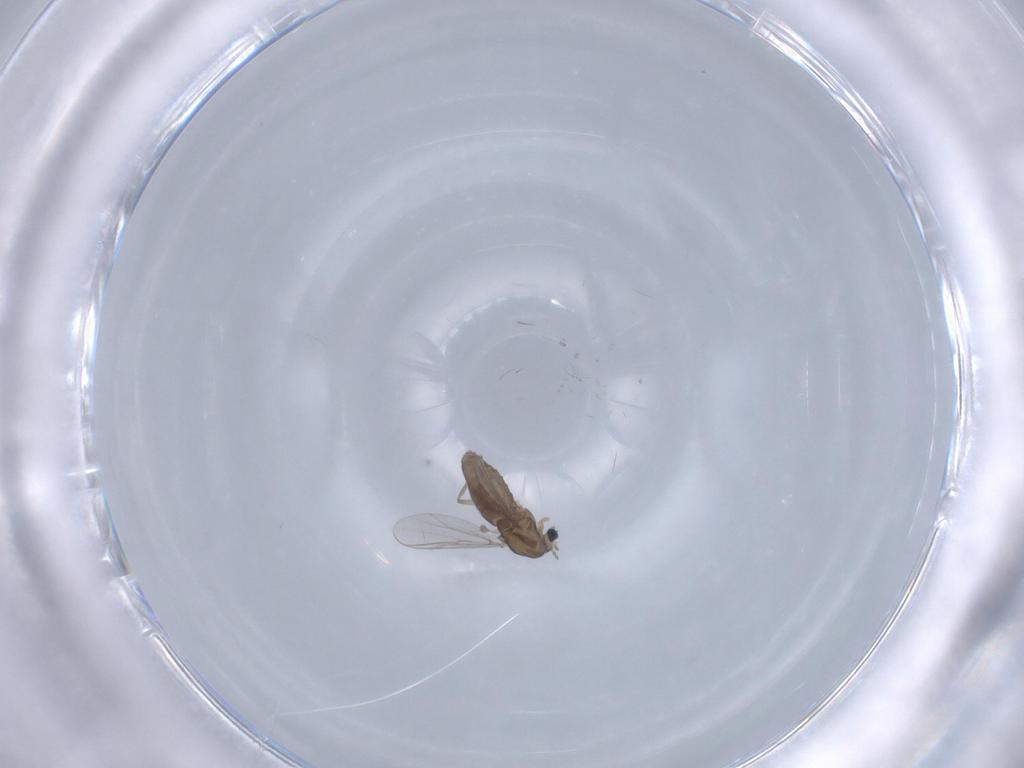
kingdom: Animalia
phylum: Arthropoda
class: Insecta
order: Diptera
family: Chironomidae
